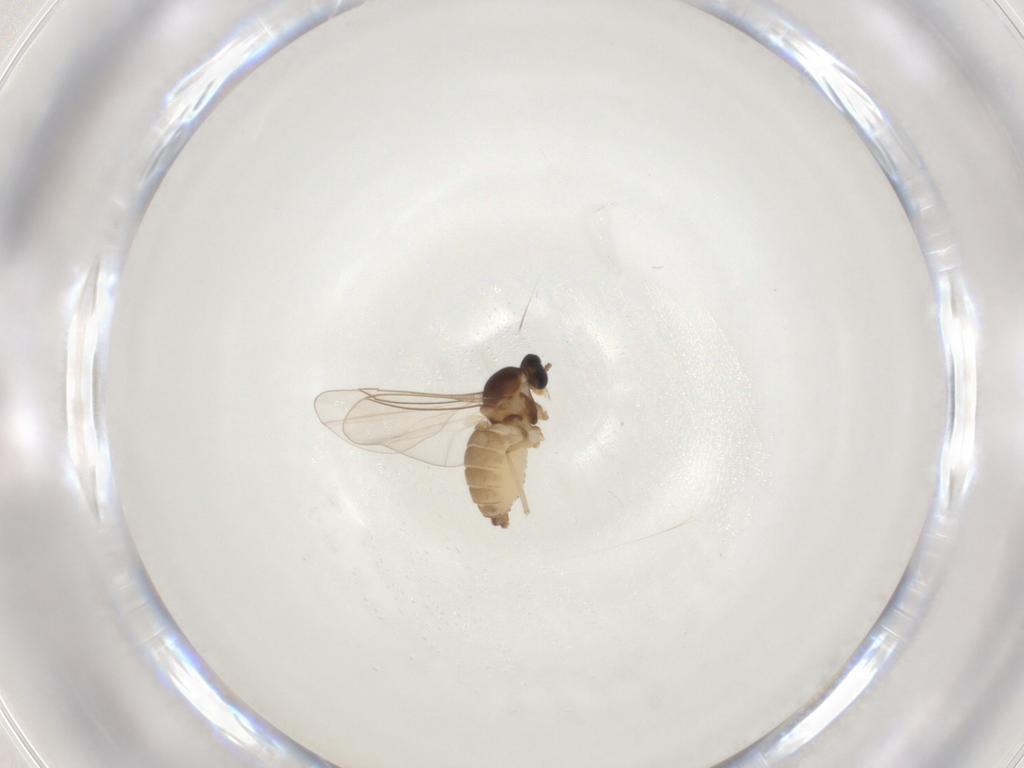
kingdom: Animalia
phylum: Arthropoda
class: Insecta
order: Diptera
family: Cecidomyiidae
